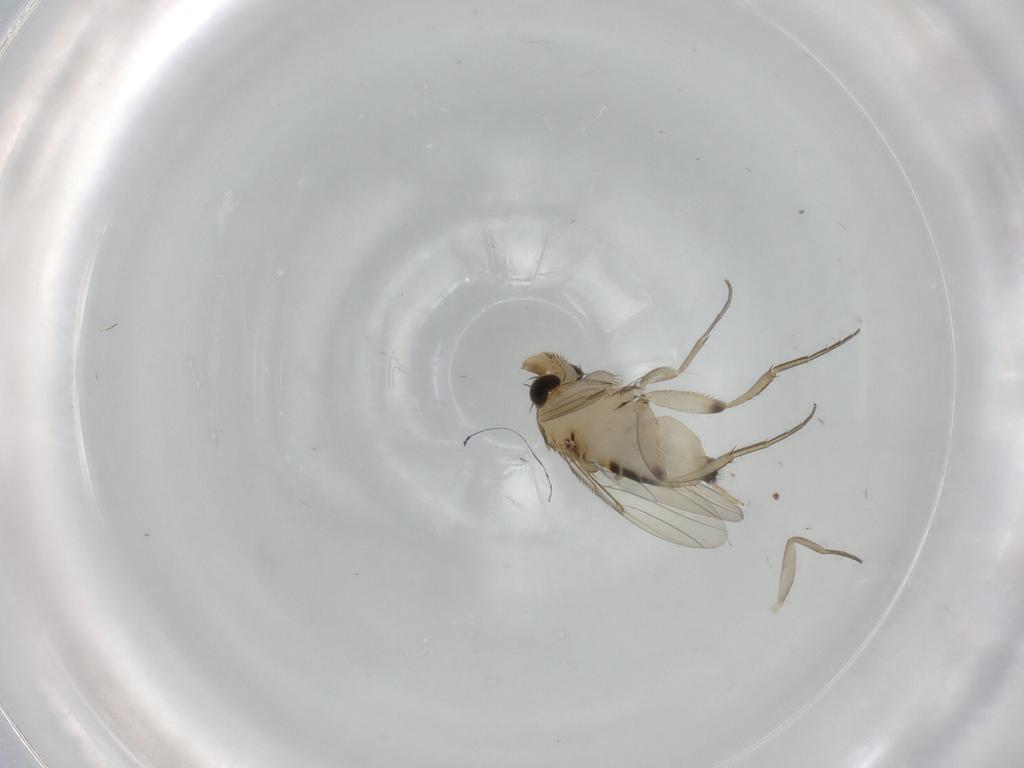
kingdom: Animalia
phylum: Arthropoda
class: Insecta
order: Diptera
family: Phoridae
